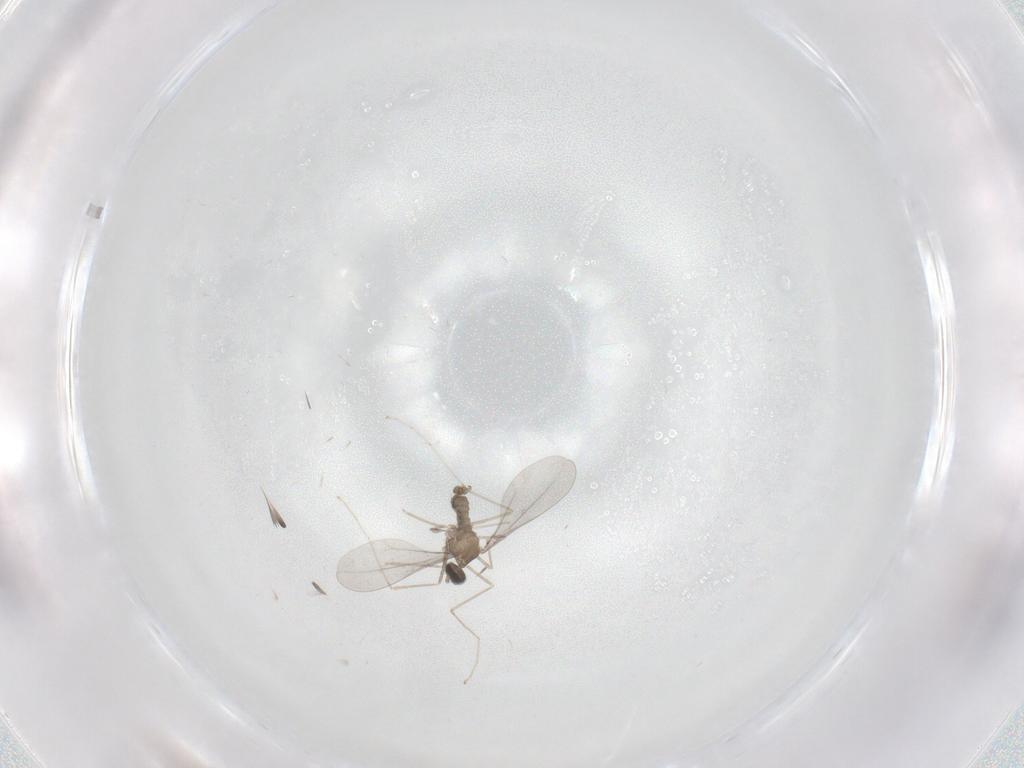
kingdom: Animalia
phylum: Arthropoda
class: Insecta
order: Diptera
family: Cecidomyiidae
